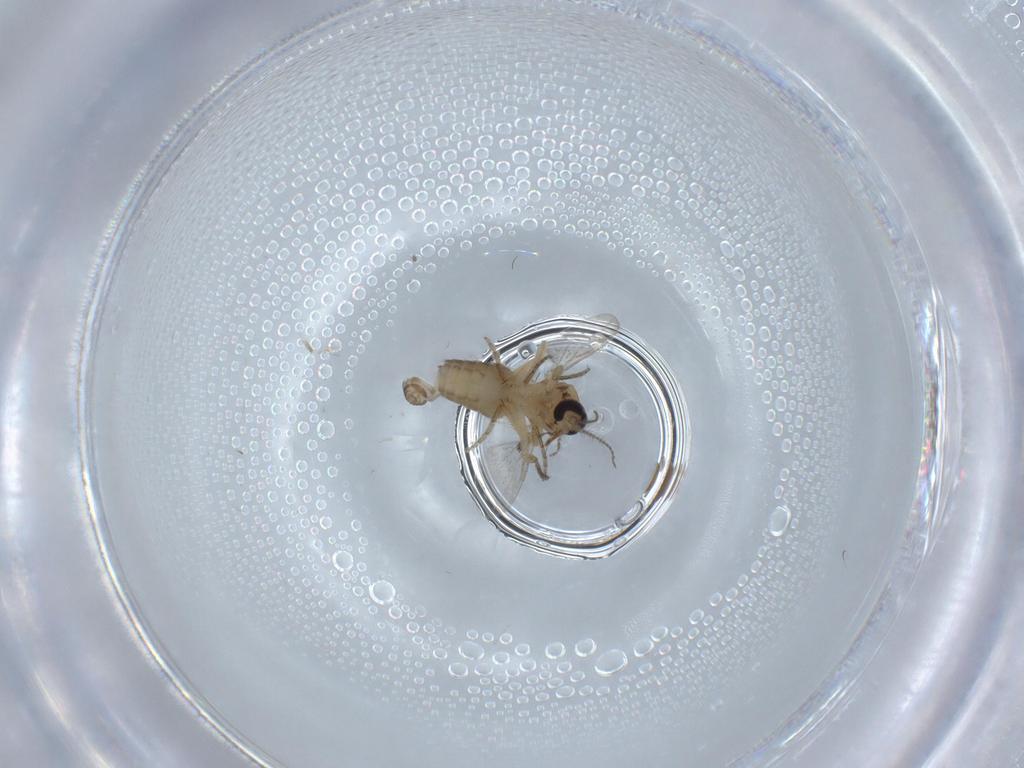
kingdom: Animalia
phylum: Arthropoda
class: Insecta
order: Diptera
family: Ceratopogonidae
